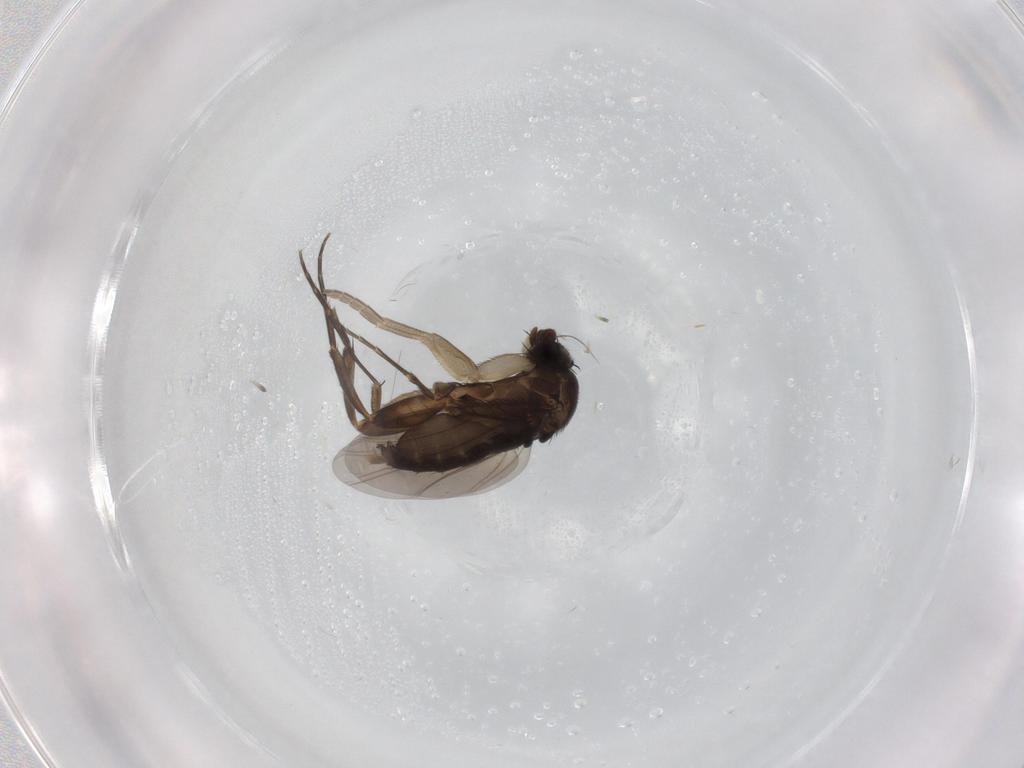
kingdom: Animalia
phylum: Arthropoda
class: Insecta
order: Diptera
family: Phoridae
